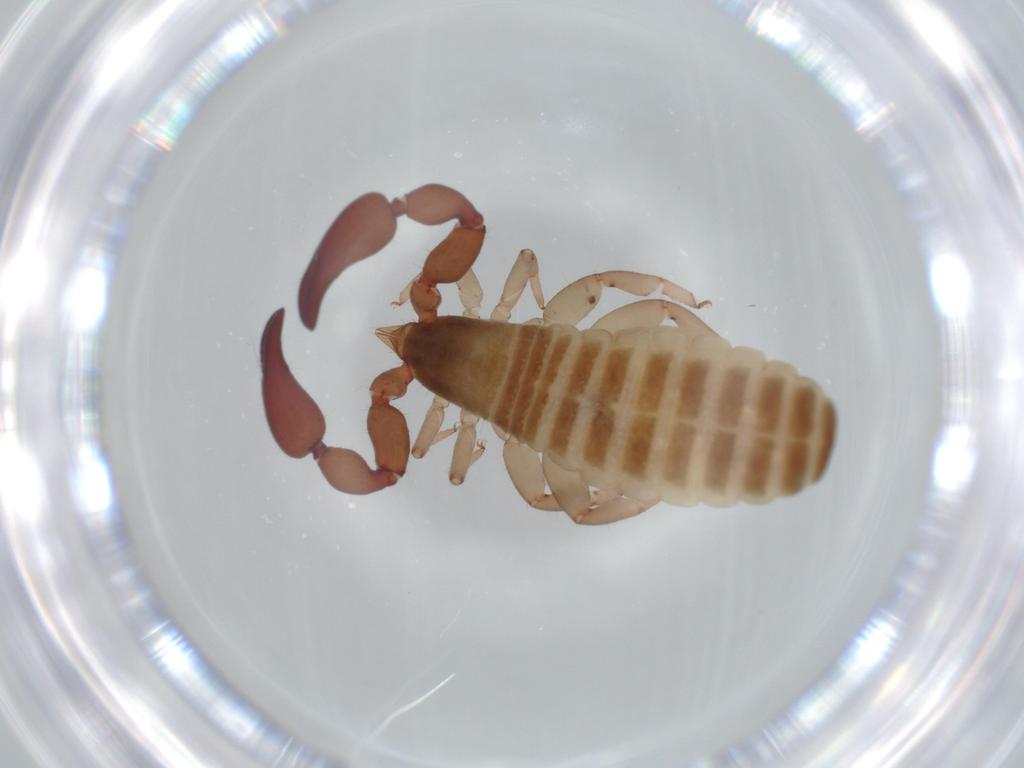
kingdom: Animalia
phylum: Arthropoda
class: Arachnida
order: Pseudoscorpiones
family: Atemnidae
